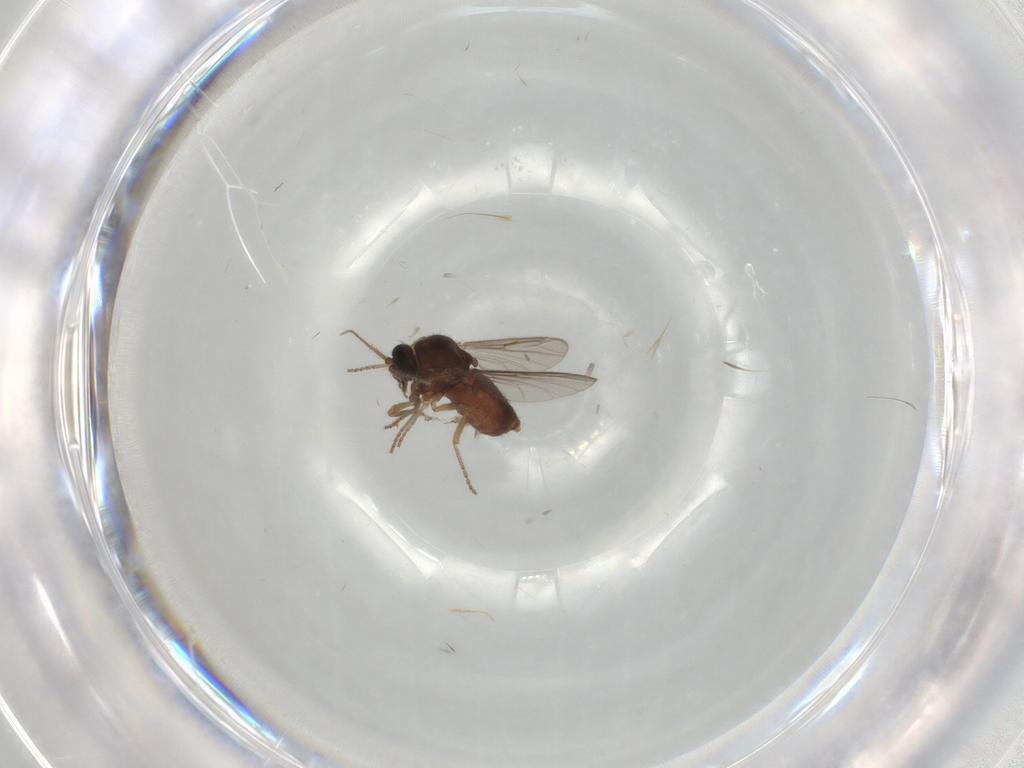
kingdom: Animalia
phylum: Arthropoda
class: Insecta
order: Diptera
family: Ceratopogonidae
